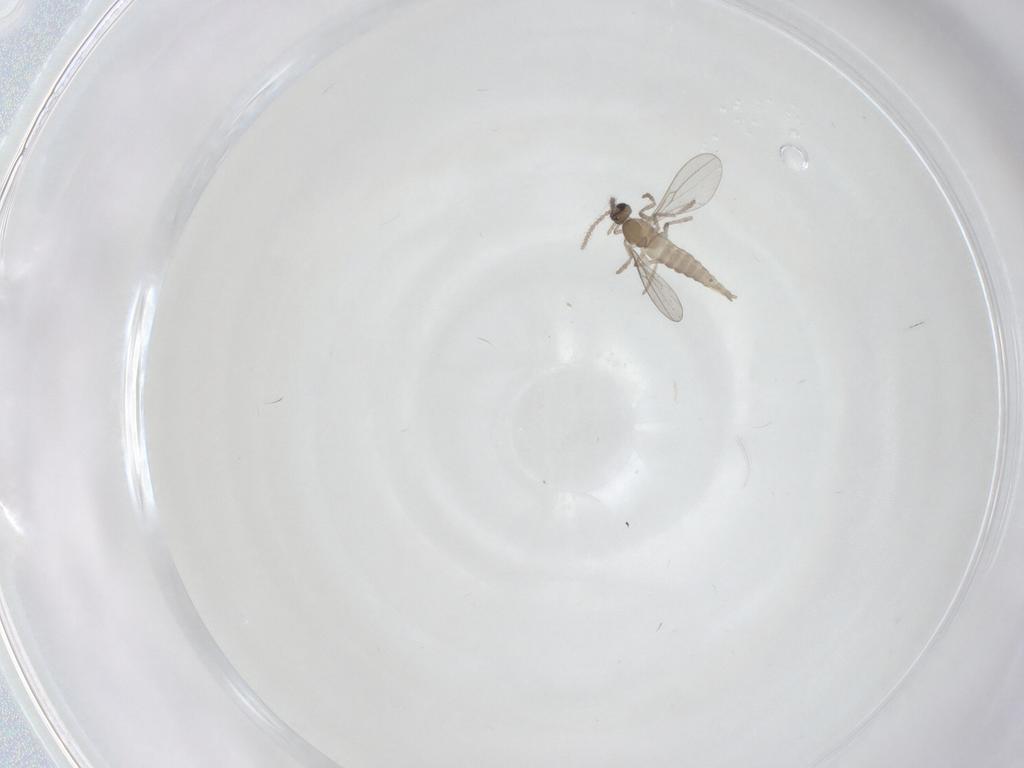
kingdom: Animalia
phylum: Arthropoda
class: Insecta
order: Diptera
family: Cecidomyiidae
